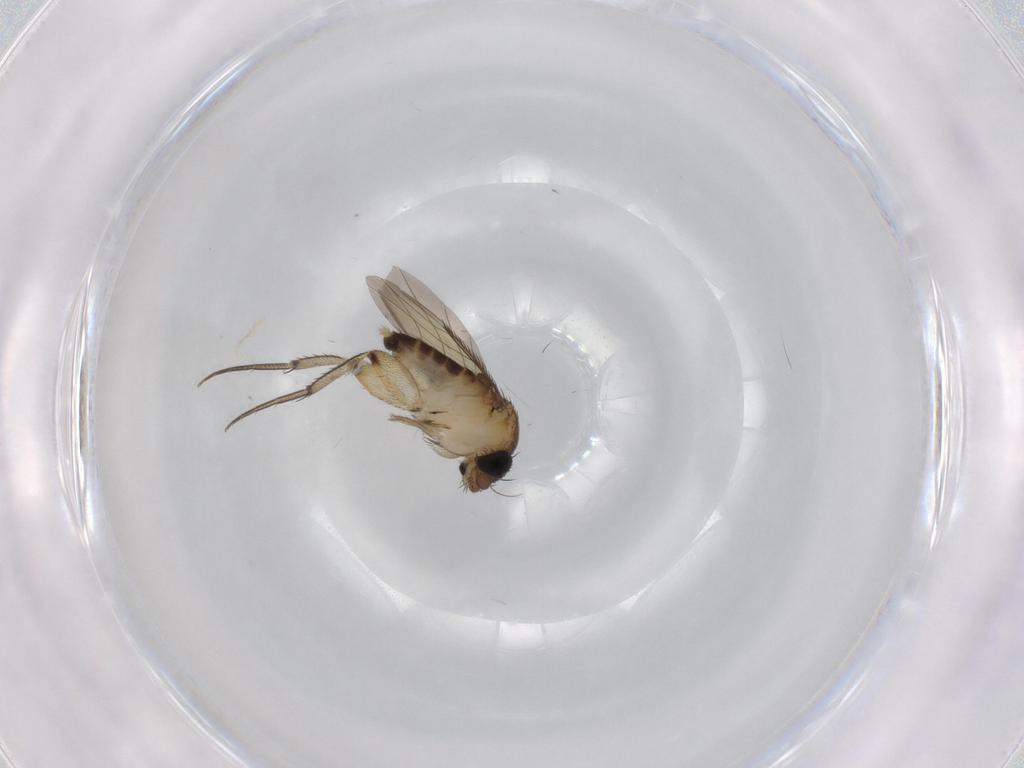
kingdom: Animalia
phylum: Arthropoda
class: Insecta
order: Diptera
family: Phoridae
